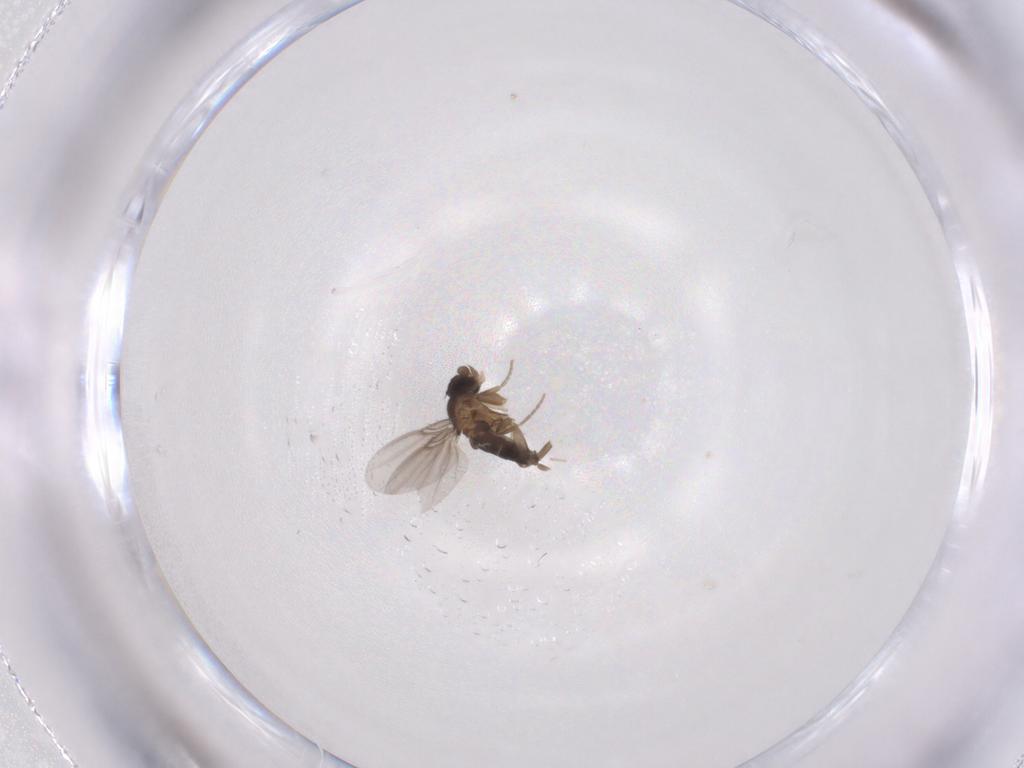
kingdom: Animalia
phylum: Arthropoda
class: Insecta
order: Diptera
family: Phoridae
